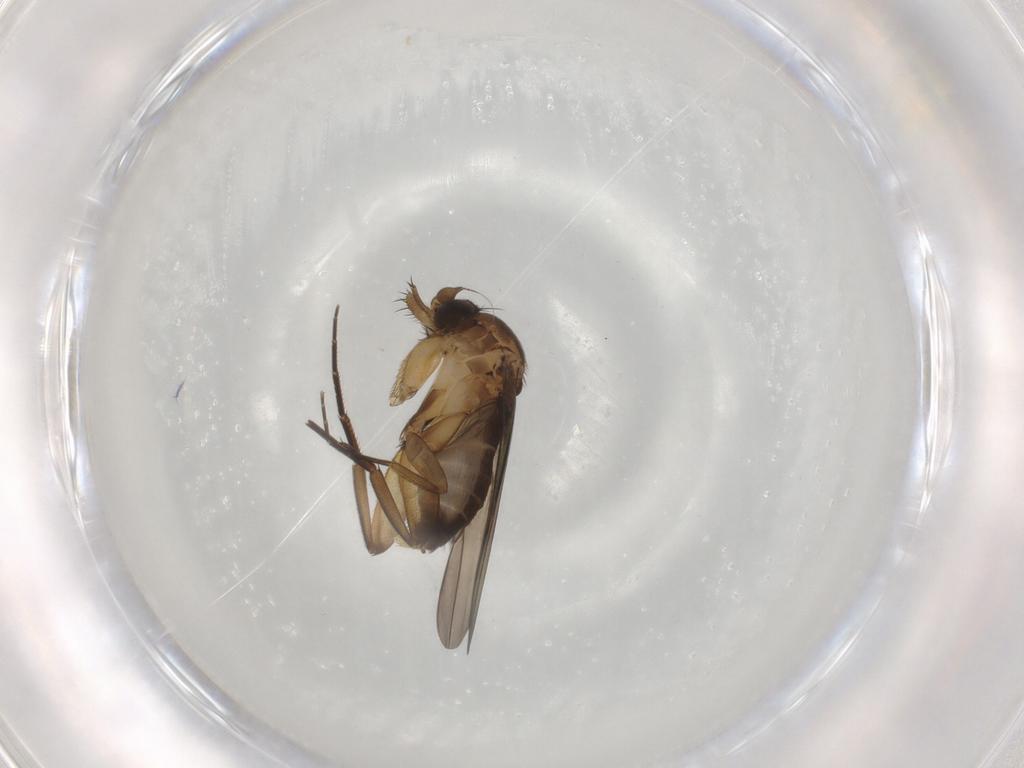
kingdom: Animalia
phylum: Arthropoda
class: Insecta
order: Diptera
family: Phoridae
